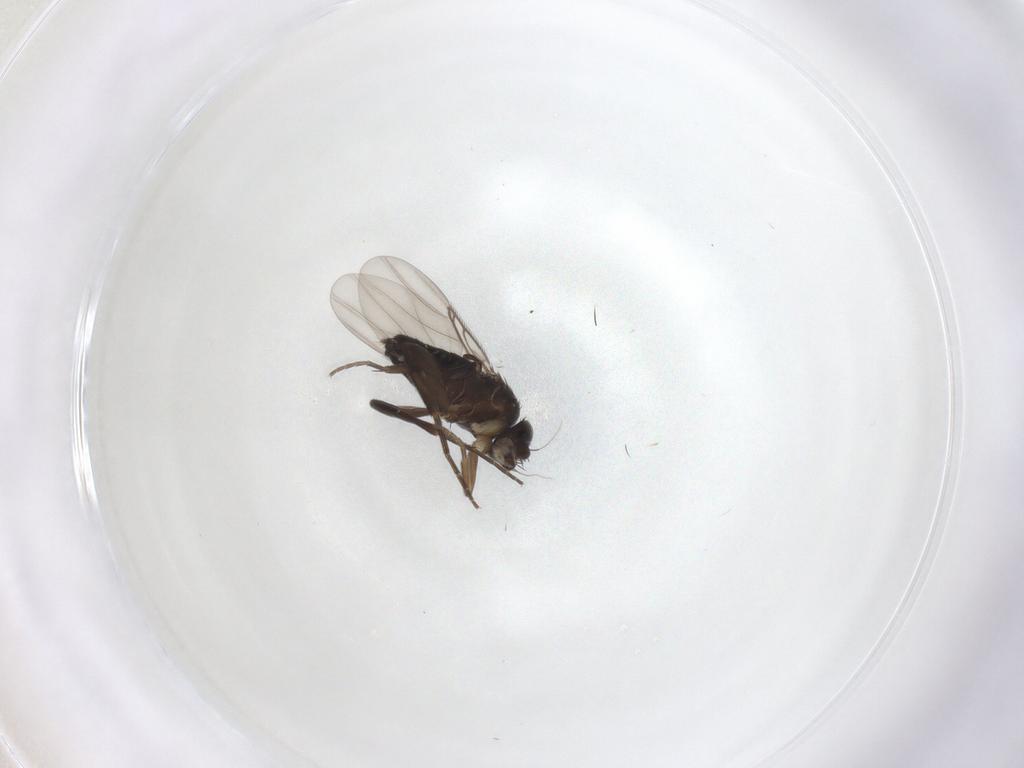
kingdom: Animalia
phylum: Arthropoda
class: Insecta
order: Diptera
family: Phoridae
